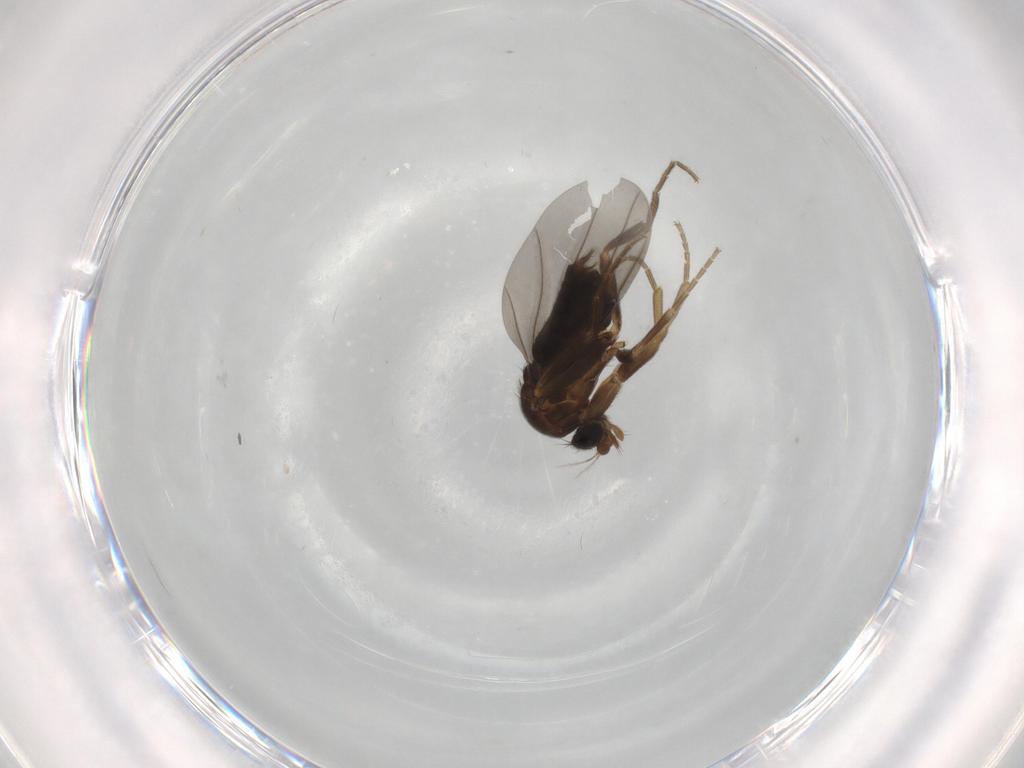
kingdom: Animalia
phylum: Arthropoda
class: Insecta
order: Diptera
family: Phoridae
